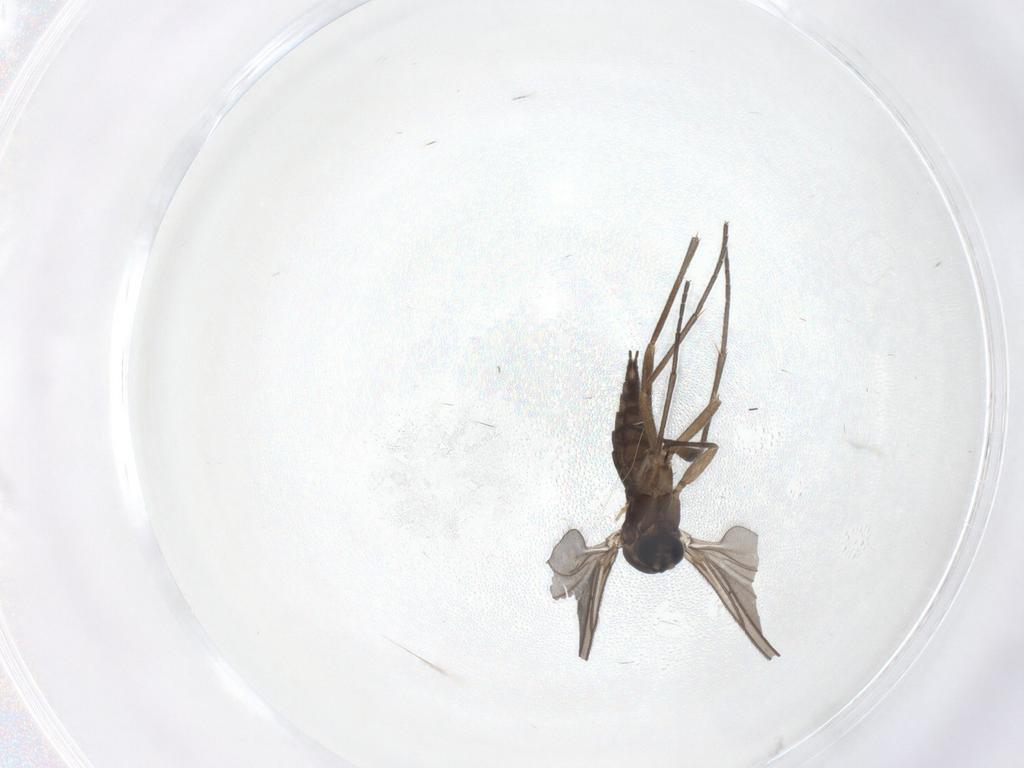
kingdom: Animalia
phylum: Arthropoda
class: Insecta
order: Diptera
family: Sciaridae
